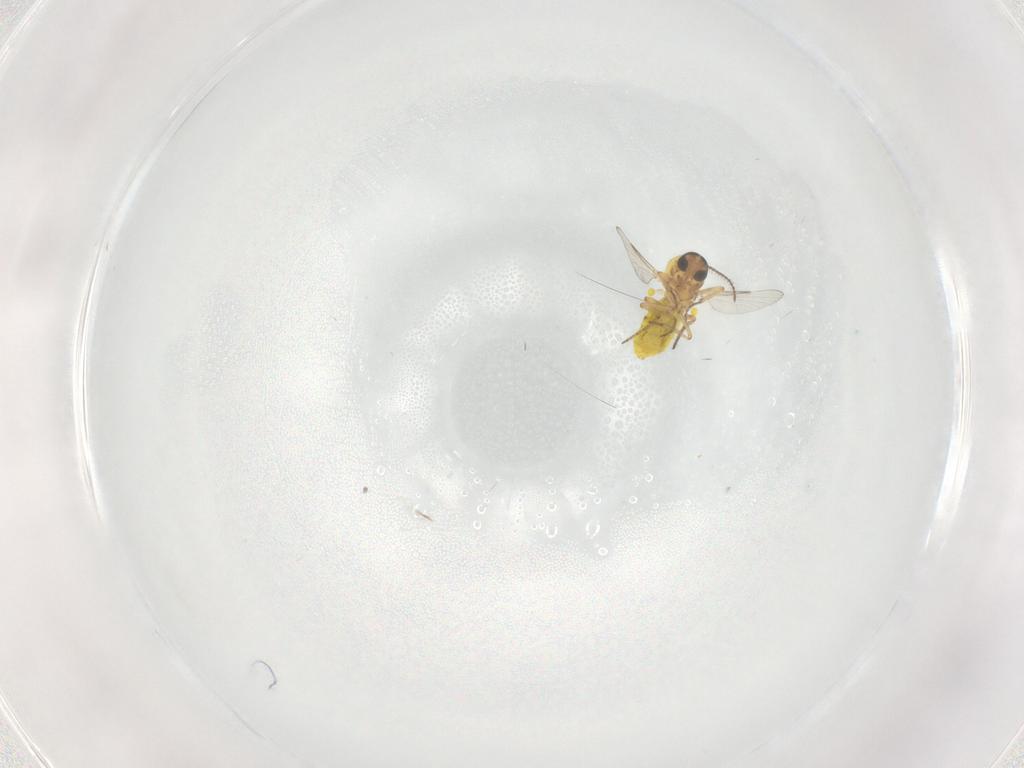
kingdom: Animalia
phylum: Arthropoda
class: Insecta
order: Diptera
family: Ceratopogonidae
